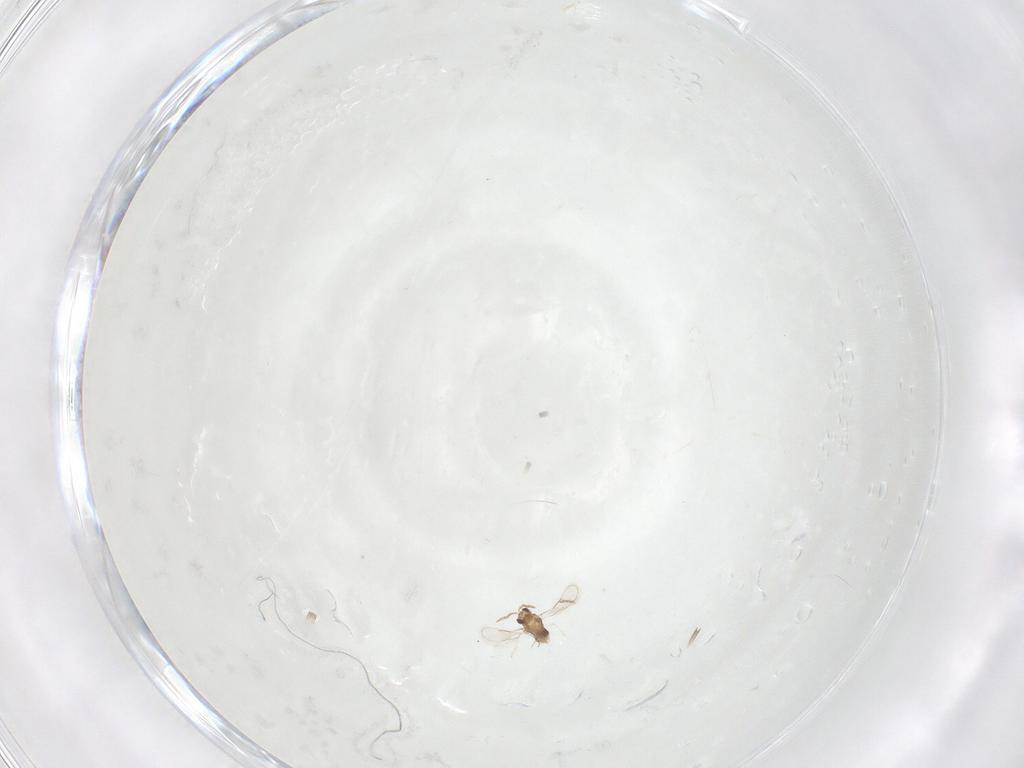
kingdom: Animalia
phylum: Arthropoda
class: Insecta
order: Hymenoptera
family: Aphelinidae
